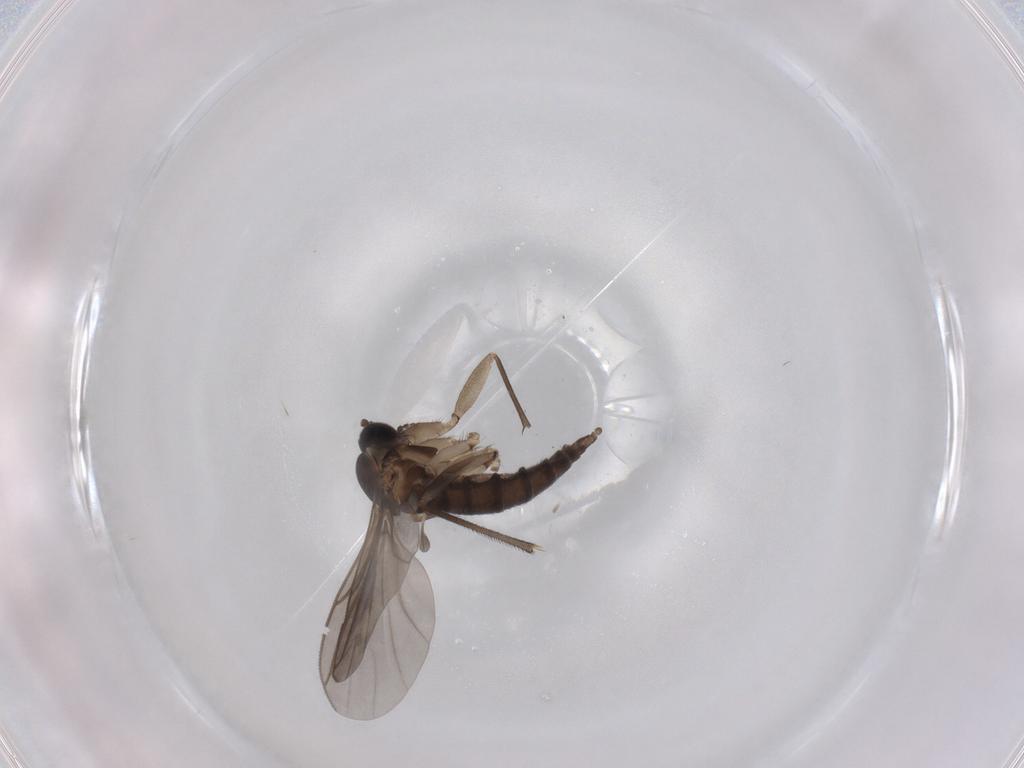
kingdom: Animalia
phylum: Arthropoda
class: Insecta
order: Diptera
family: Sciaridae
